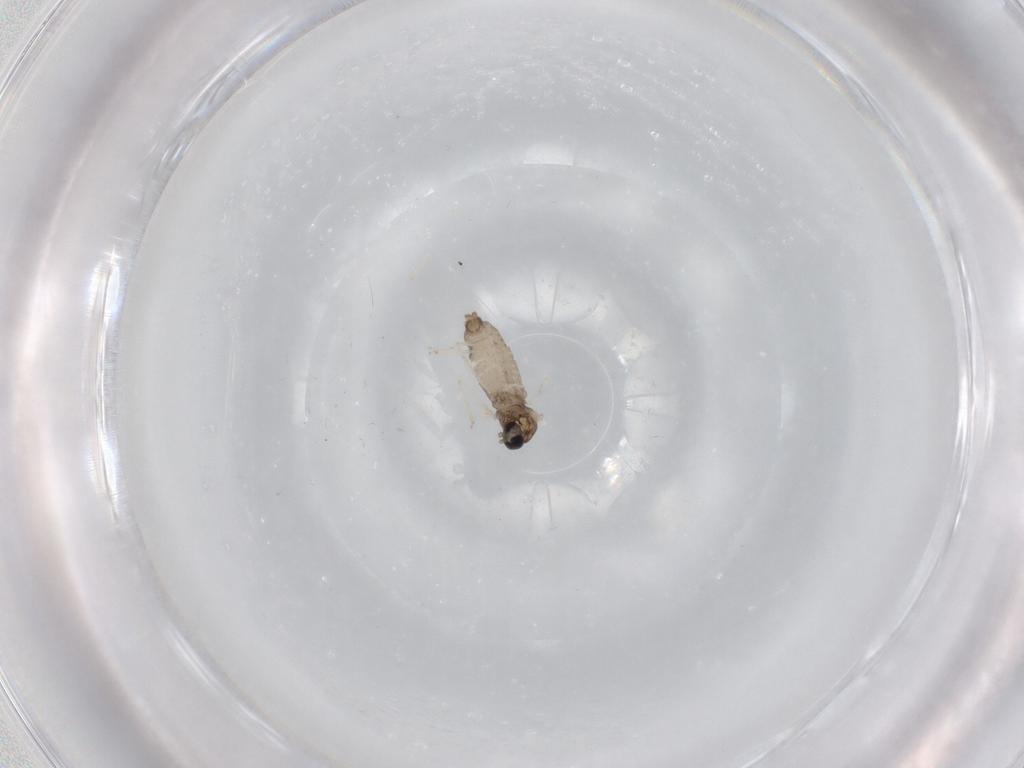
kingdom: Animalia
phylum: Arthropoda
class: Insecta
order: Diptera
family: Cecidomyiidae
